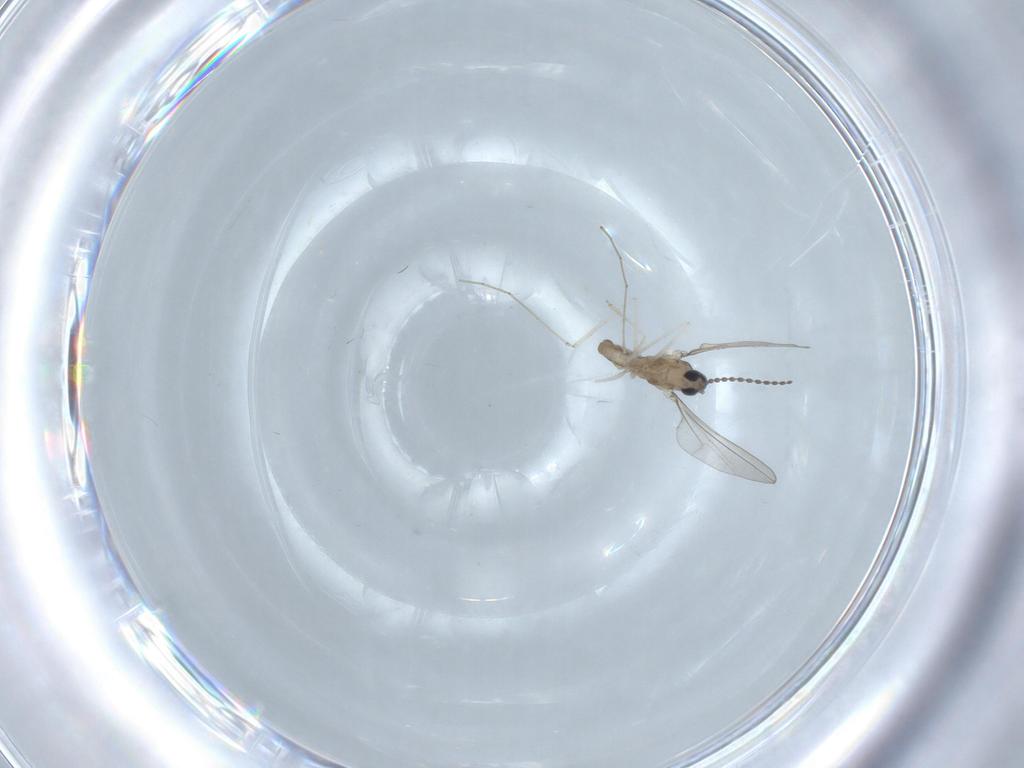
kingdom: Animalia
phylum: Arthropoda
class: Insecta
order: Diptera
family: Cecidomyiidae
